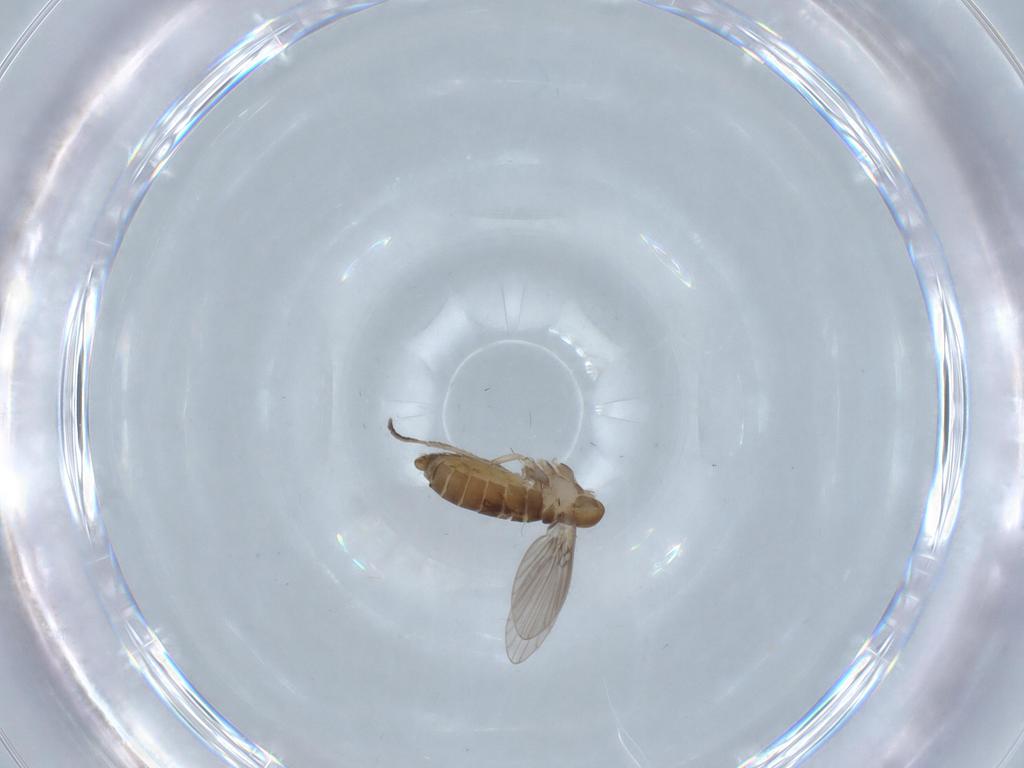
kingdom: Animalia
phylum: Arthropoda
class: Insecta
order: Diptera
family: Psychodidae
